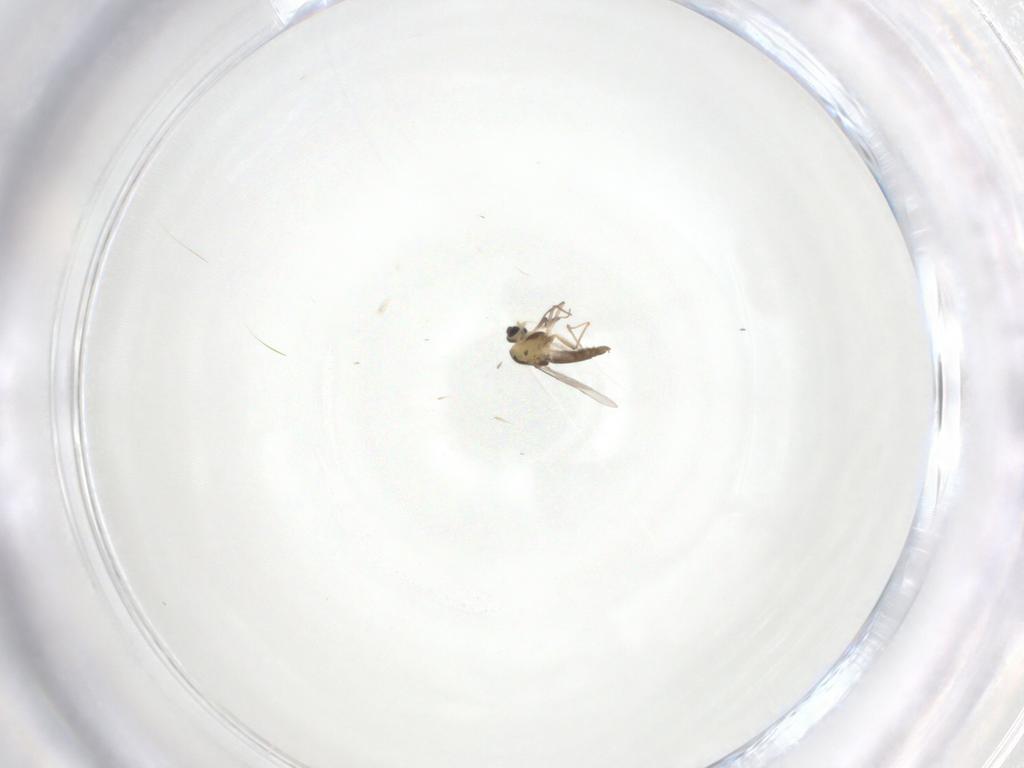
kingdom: Animalia
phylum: Arthropoda
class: Insecta
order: Diptera
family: Chironomidae
